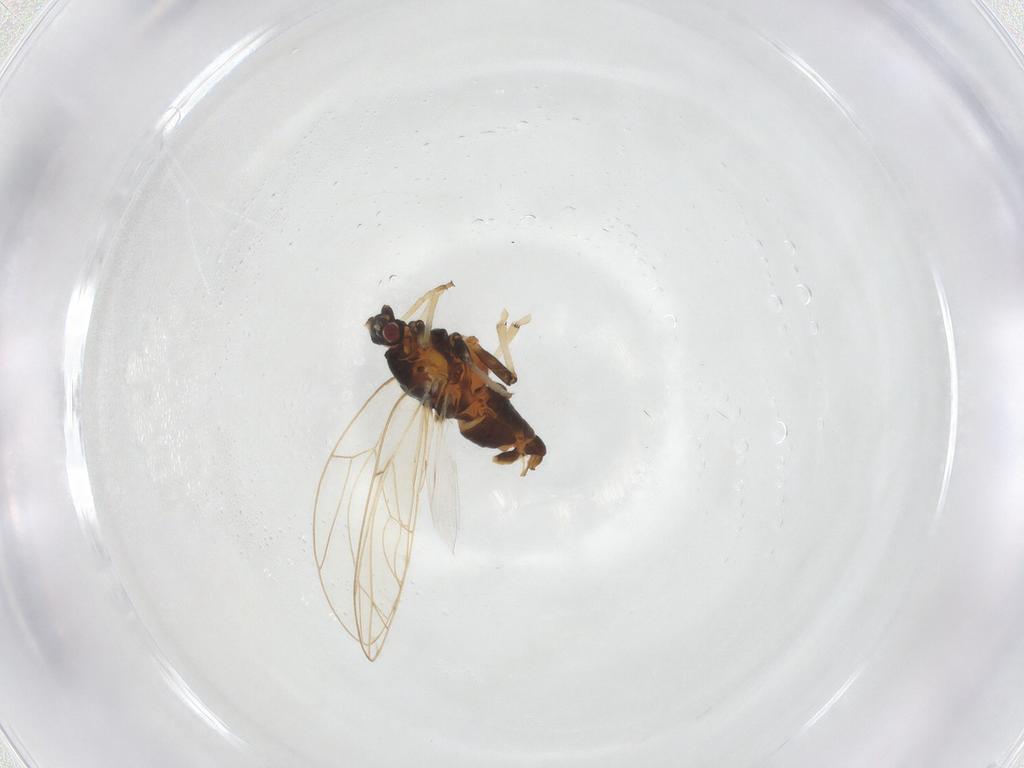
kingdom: Animalia
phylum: Arthropoda
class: Insecta
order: Hemiptera
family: Triozidae
